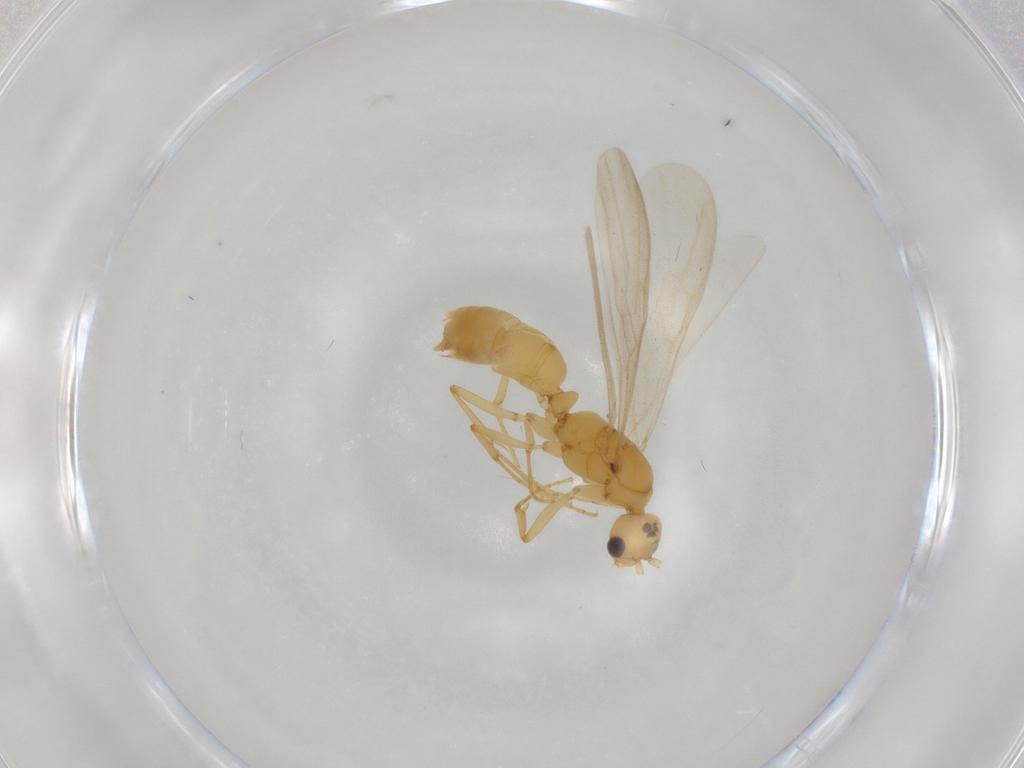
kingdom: Animalia
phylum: Arthropoda
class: Insecta
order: Hymenoptera
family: Formicidae
